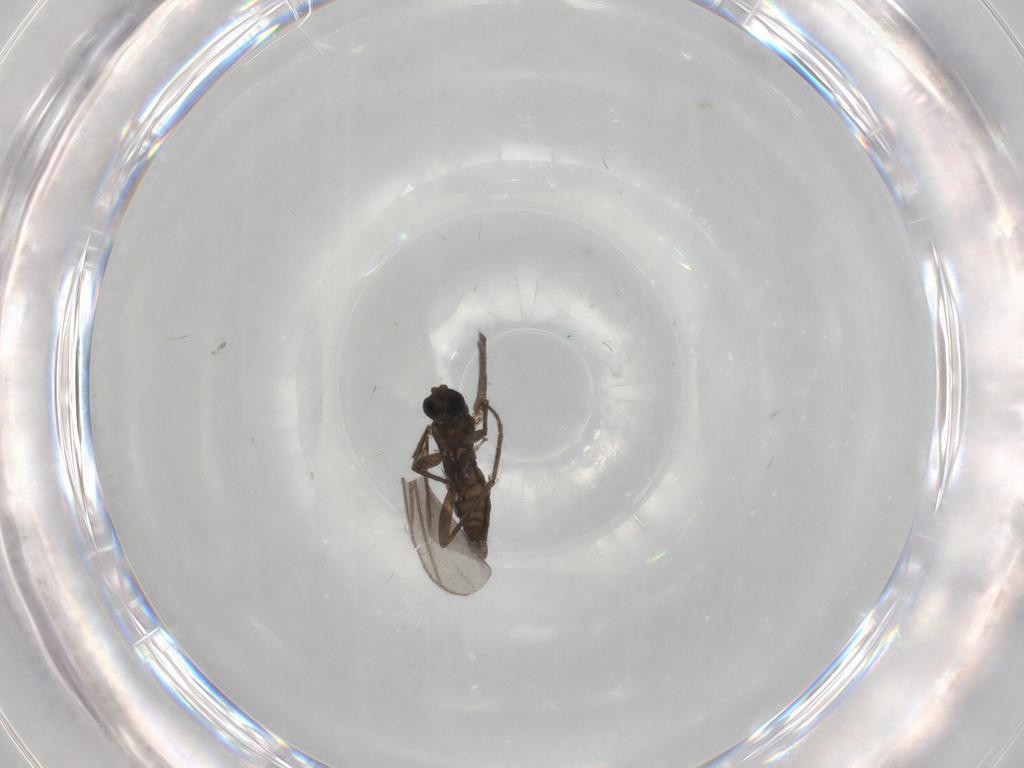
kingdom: Animalia
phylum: Arthropoda
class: Insecta
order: Diptera
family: Sciaridae
